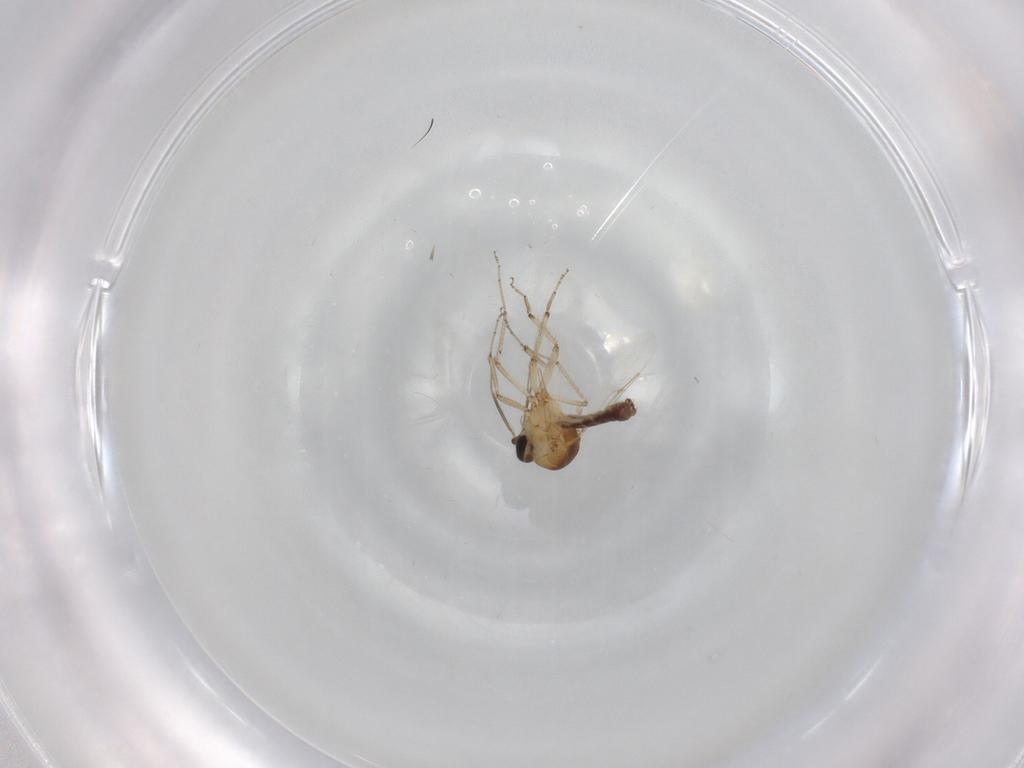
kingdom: Animalia
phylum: Arthropoda
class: Insecta
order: Diptera
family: Ceratopogonidae
